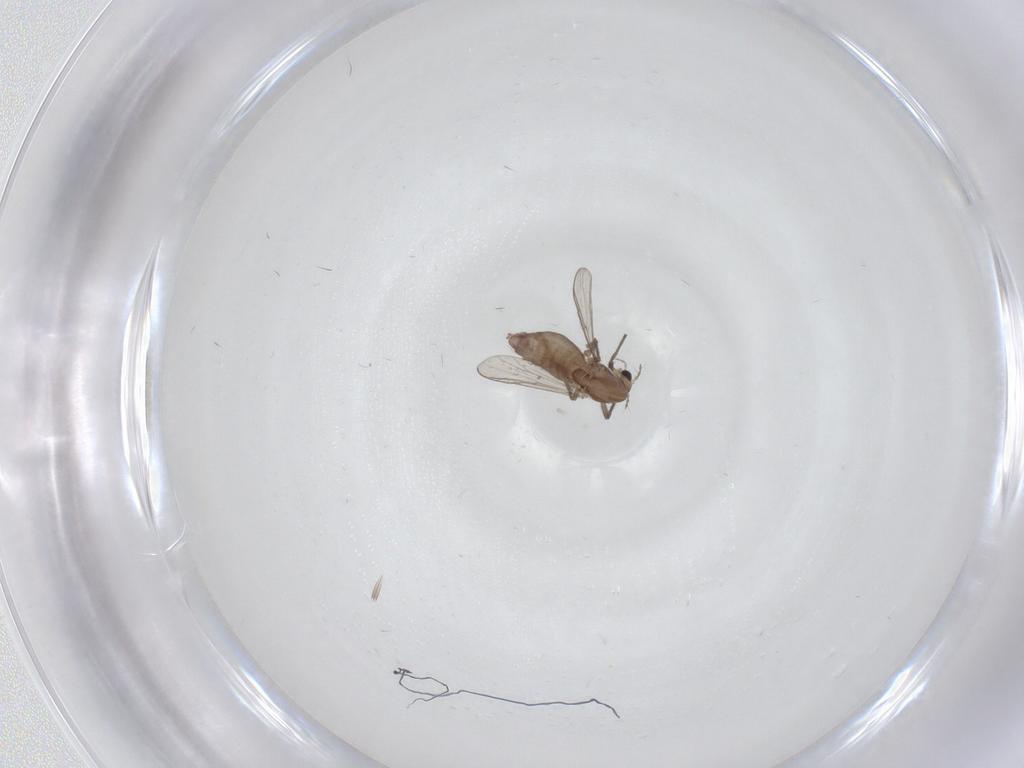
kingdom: Animalia
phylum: Arthropoda
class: Insecta
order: Diptera
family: Chironomidae
